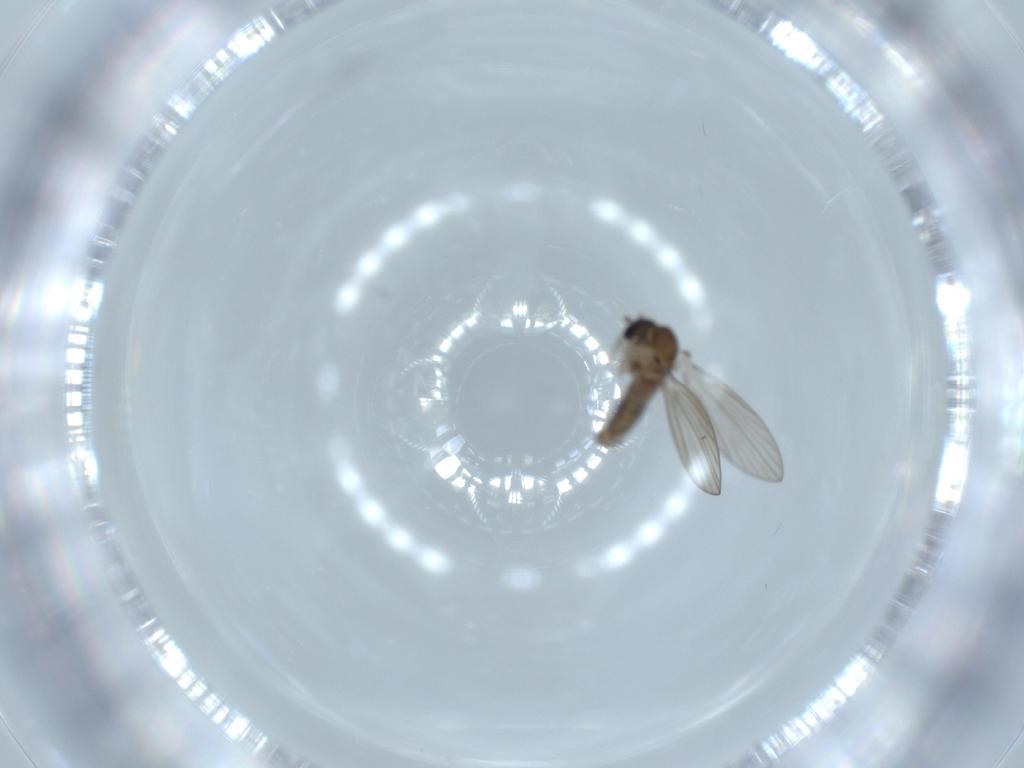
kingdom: Animalia
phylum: Arthropoda
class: Insecta
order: Diptera
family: Psychodidae
